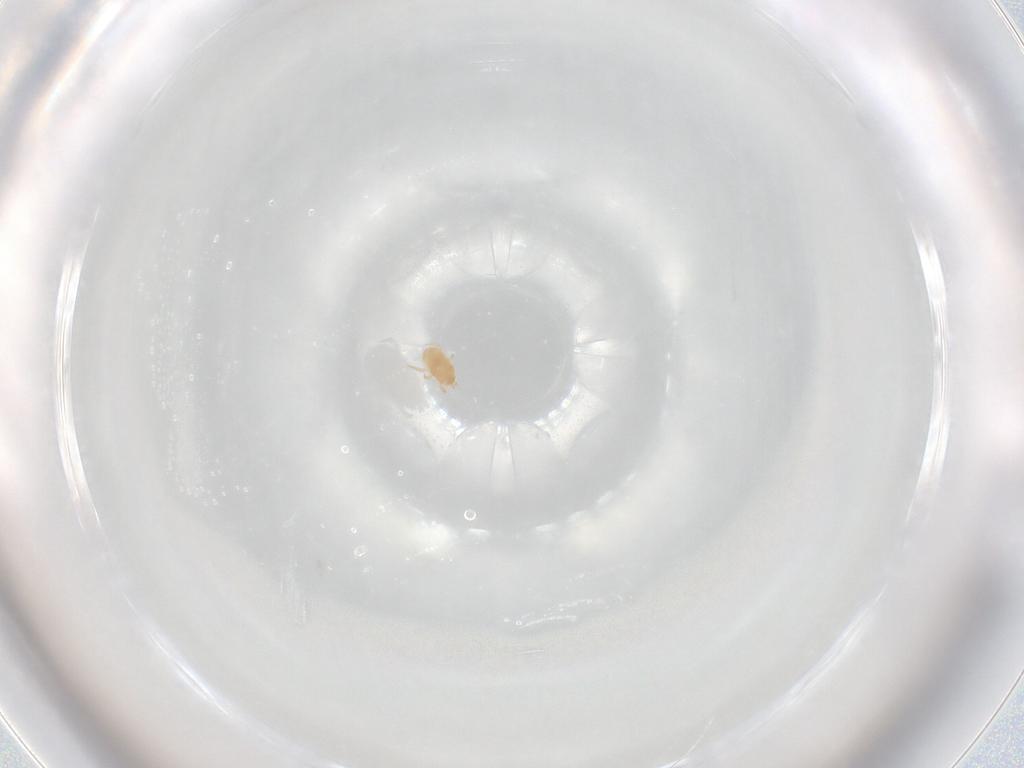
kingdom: Animalia
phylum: Arthropoda
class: Arachnida
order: Mesostigmata
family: Ascidae
